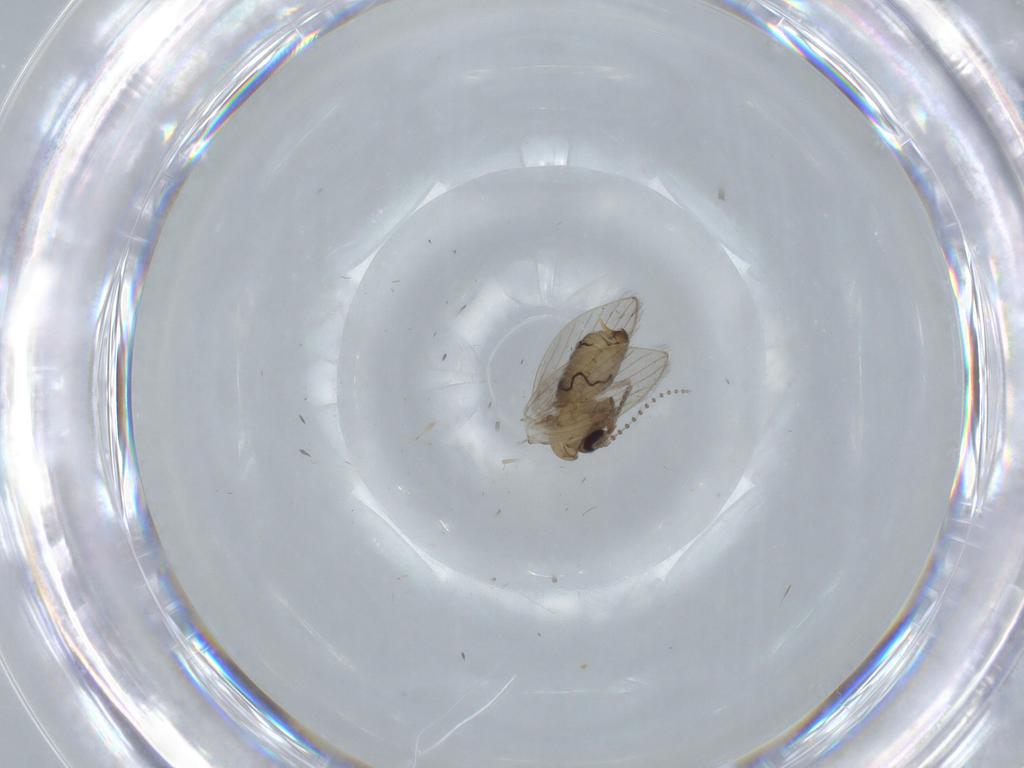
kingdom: Animalia
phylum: Arthropoda
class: Insecta
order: Diptera
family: Psychodidae
